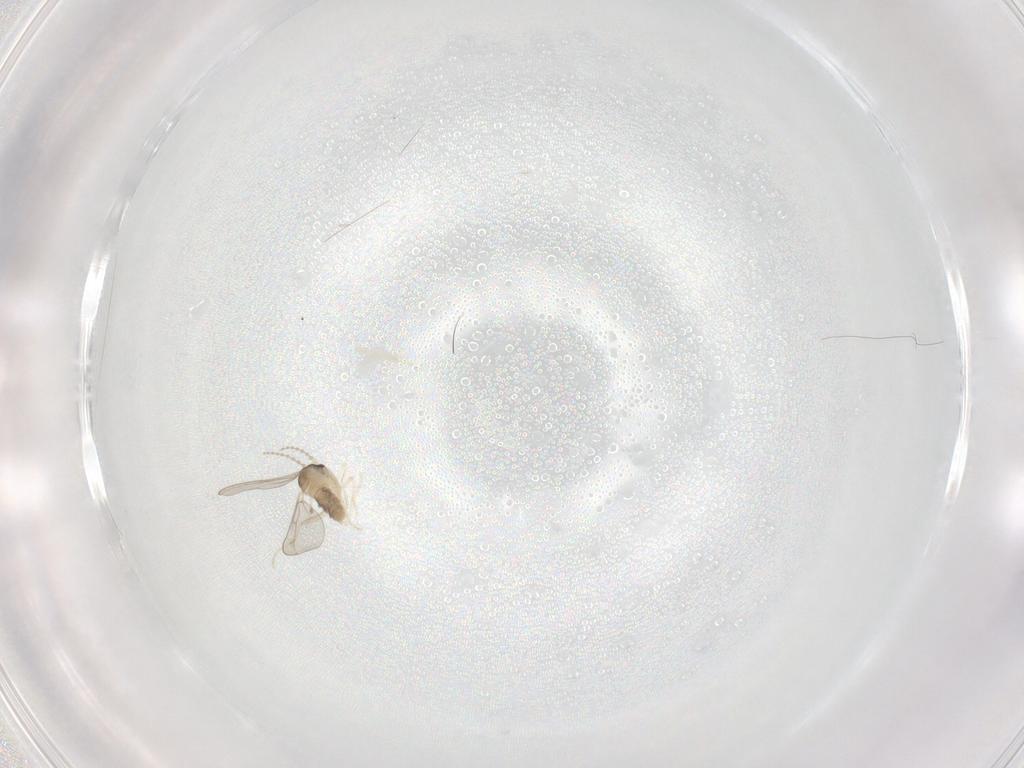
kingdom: Animalia
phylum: Arthropoda
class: Insecta
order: Diptera
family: Cecidomyiidae
